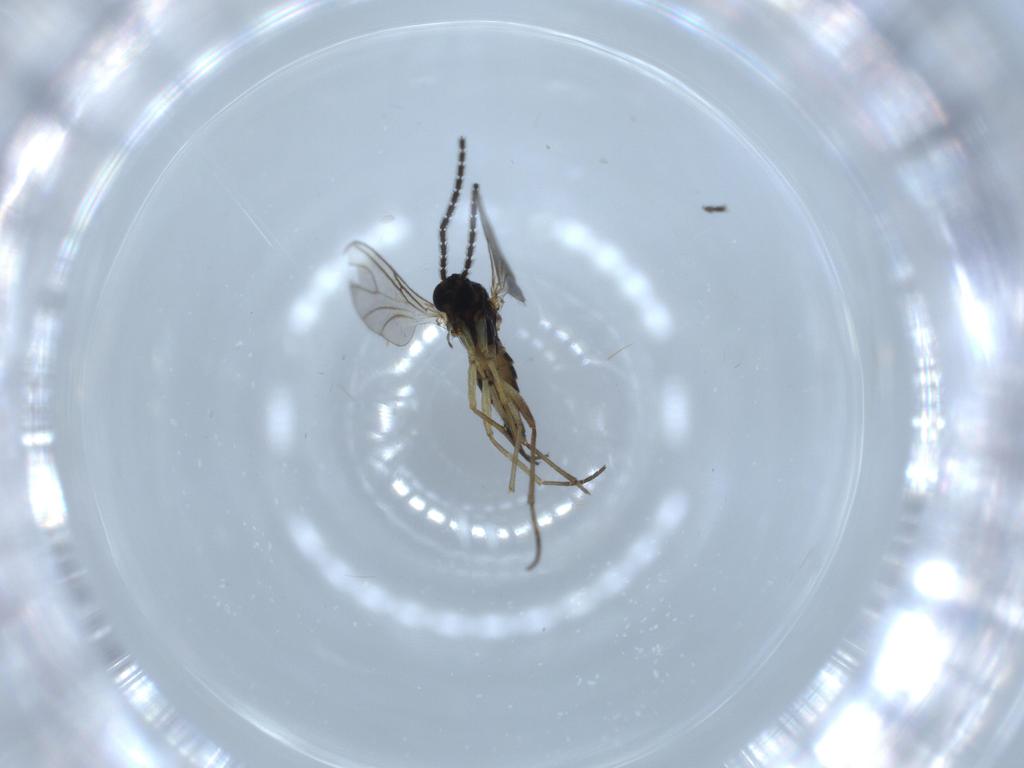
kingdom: Animalia
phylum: Arthropoda
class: Insecta
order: Diptera
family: Sciaridae
